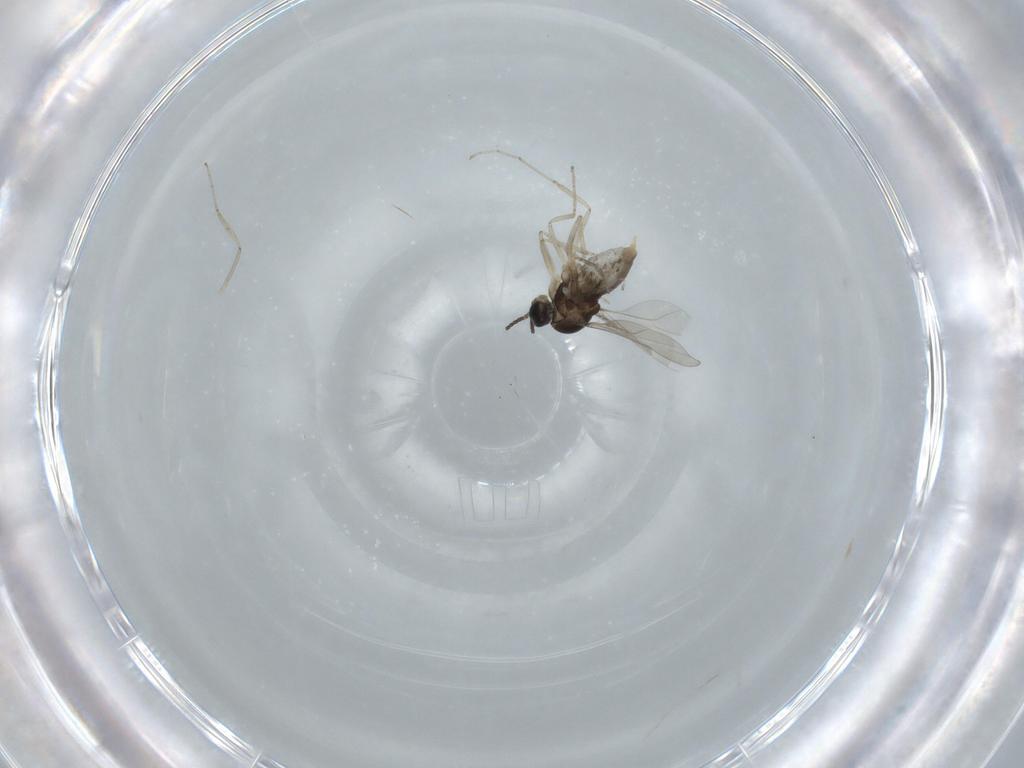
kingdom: Animalia
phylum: Arthropoda
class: Insecta
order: Diptera
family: Cecidomyiidae
